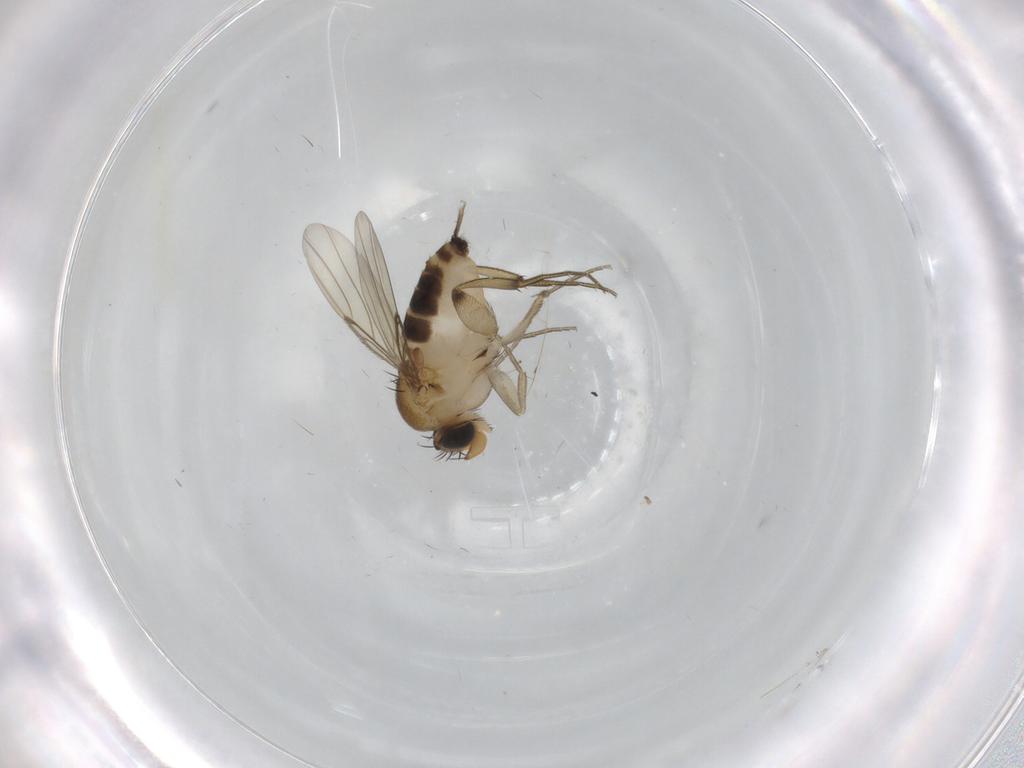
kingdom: Animalia
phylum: Arthropoda
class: Insecta
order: Diptera
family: Phoridae
